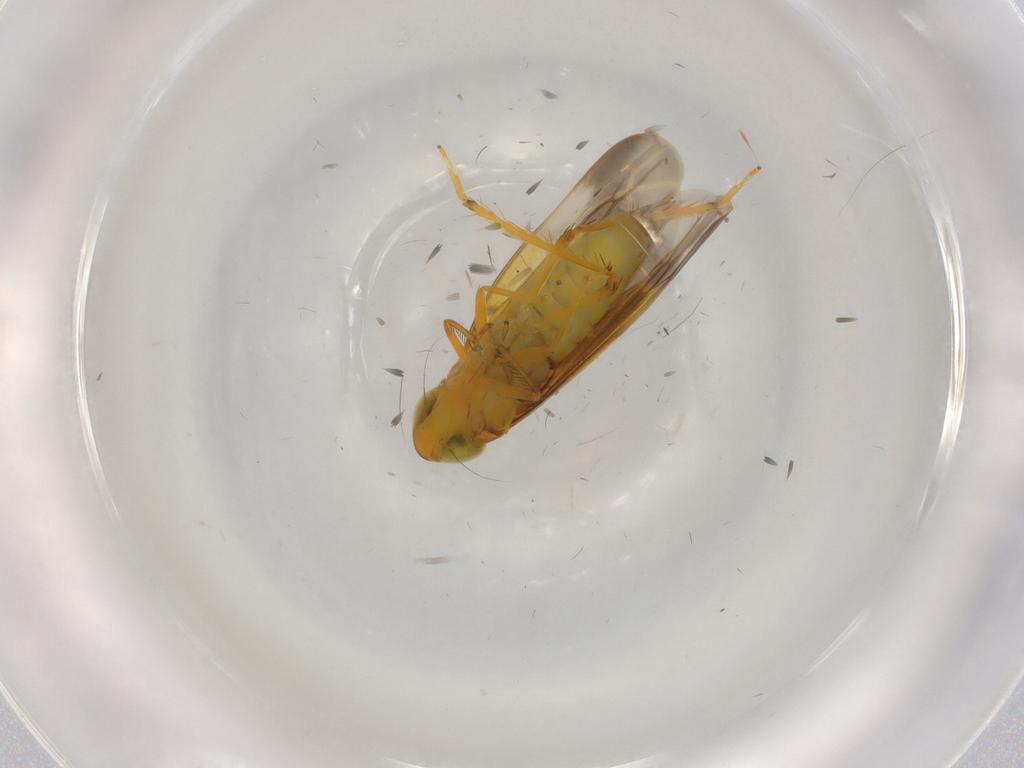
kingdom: Animalia
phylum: Arthropoda
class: Insecta
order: Hemiptera
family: Cicadellidae
